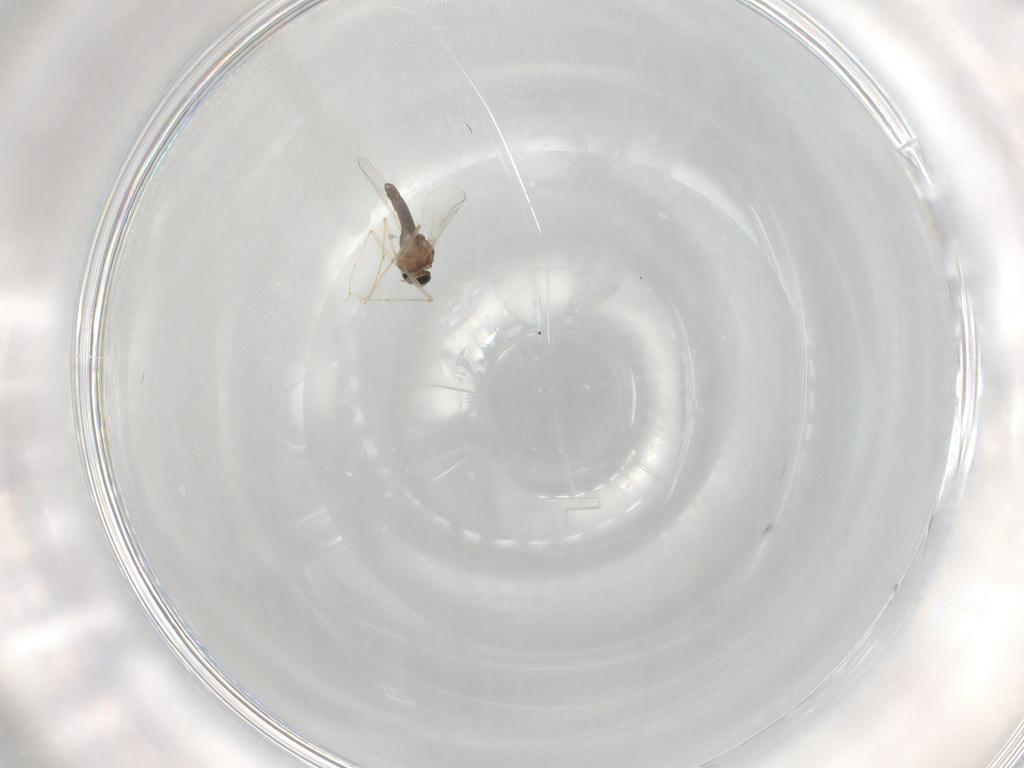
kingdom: Animalia
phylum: Arthropoda
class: Insecta
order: Diptera
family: Chironomidae
